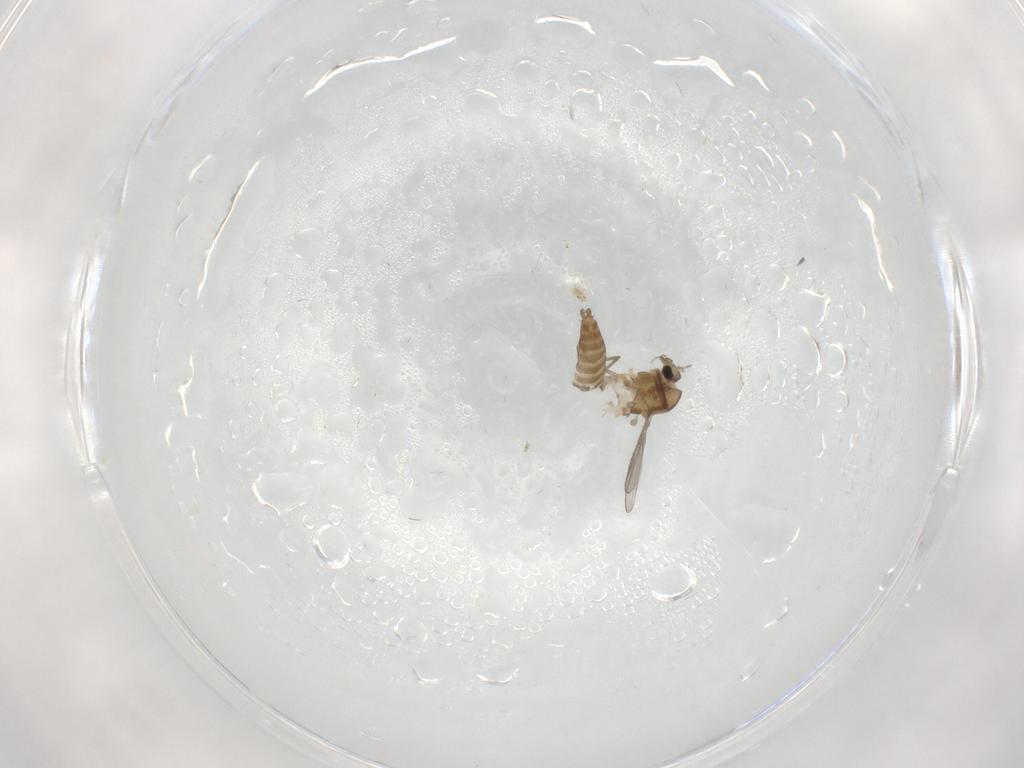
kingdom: Animalia
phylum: Arthropoda
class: Insecta
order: Diptera
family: Chironomidae
